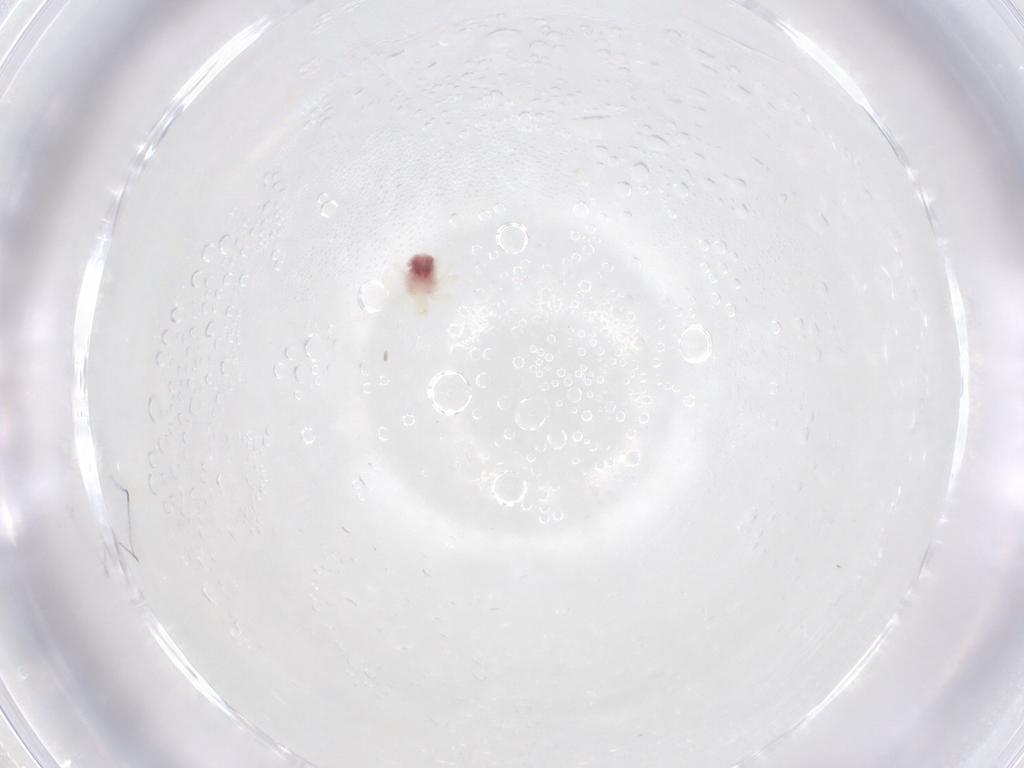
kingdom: Animalia
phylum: Arthropoda
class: Arachnida
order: Trombidiformes
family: Anystidae
